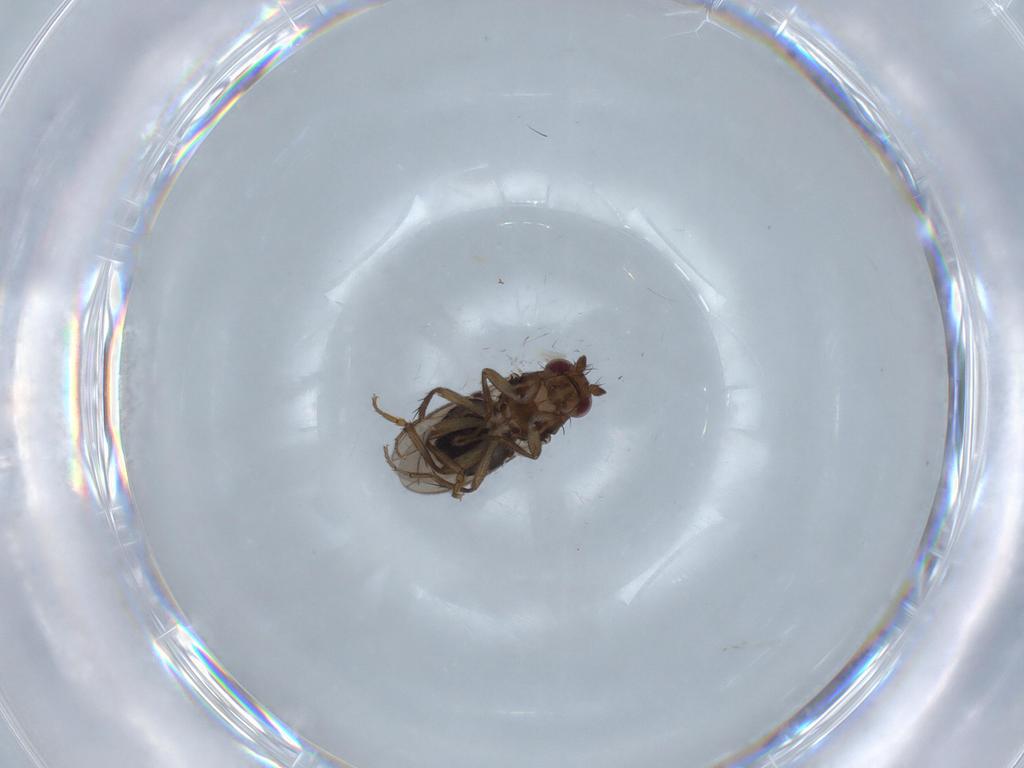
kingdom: Animalia
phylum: Arthropoda
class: Insecta
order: Diptera
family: Sphaeroceridae
